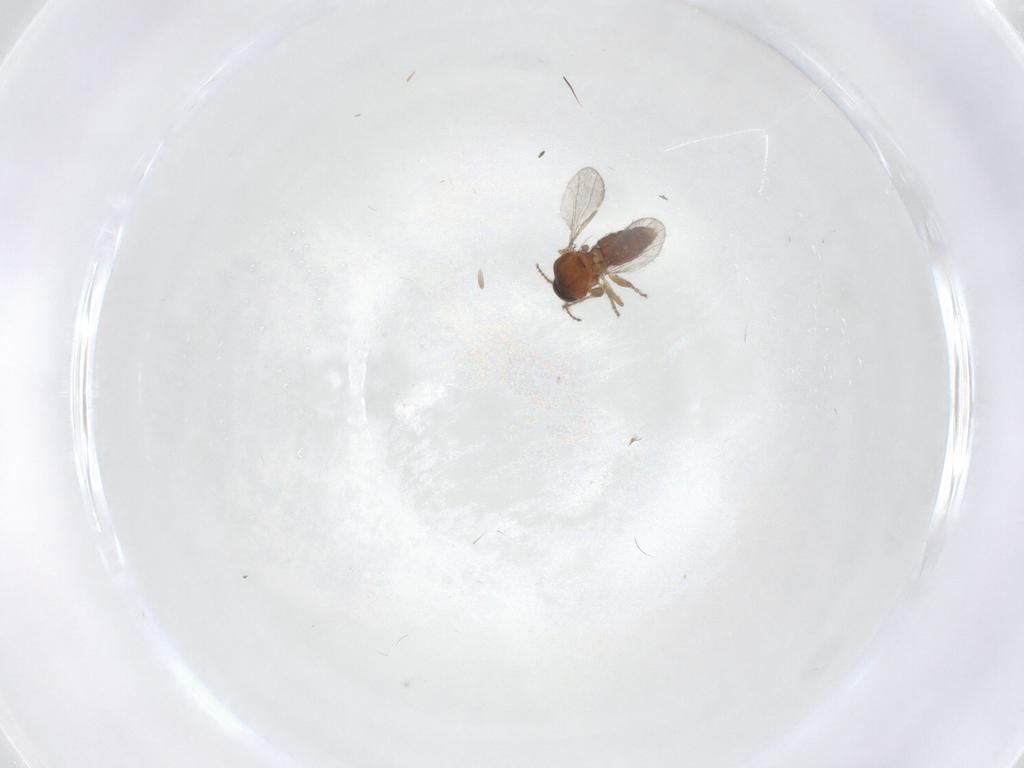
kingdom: Animalia
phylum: Arthropoda
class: Insecta
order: Diptera
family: Ceratopogonidae
